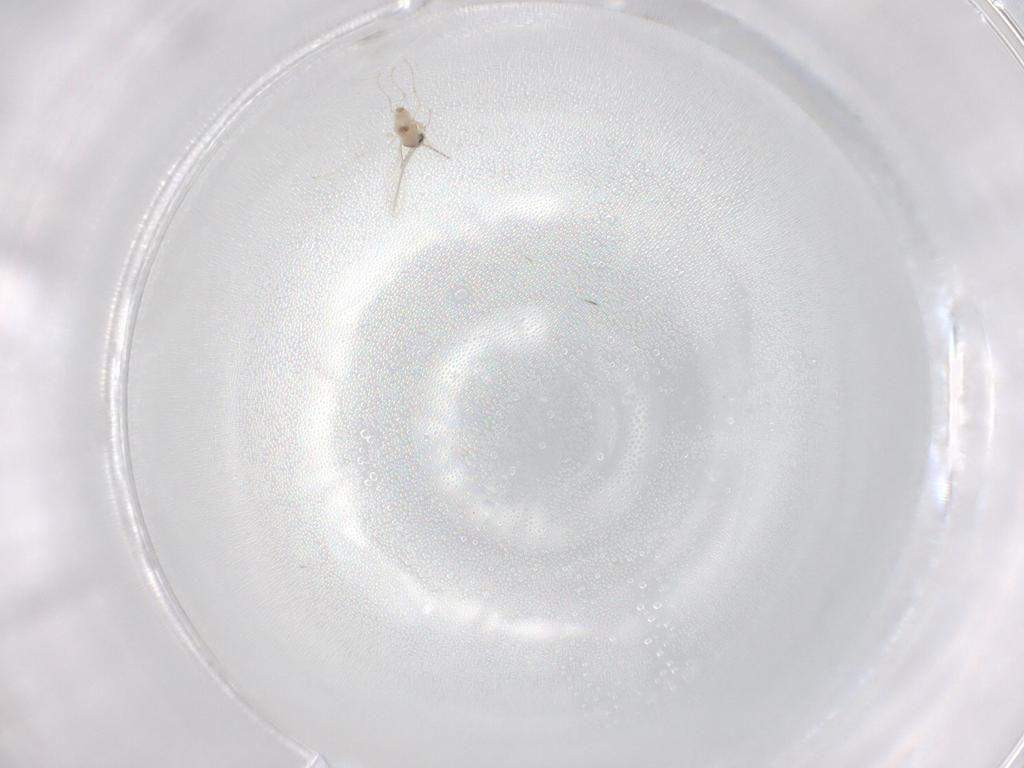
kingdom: Animalia
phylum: Arthropoda
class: Insecta
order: Diptera
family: Cecidomyiidae
